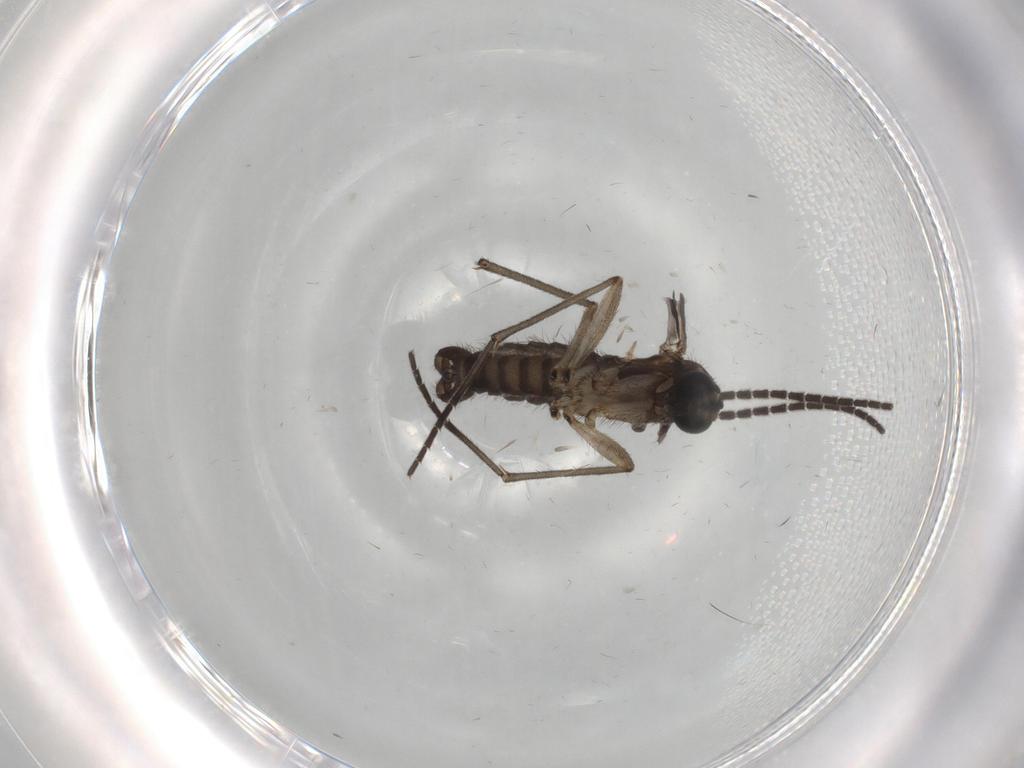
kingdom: Animalia
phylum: Arthropoda
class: Insecta
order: Diptera
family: Sciaridae
